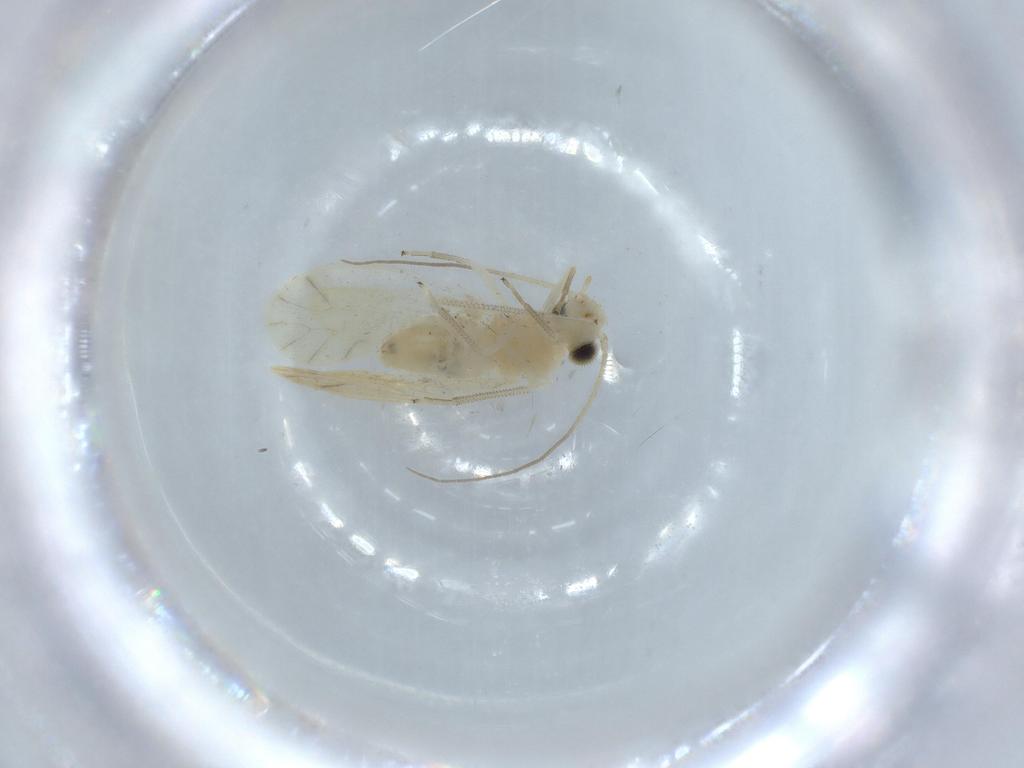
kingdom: Animalia
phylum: Arthropoda
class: Insecta
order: Psocodea
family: Caeciliusidae
